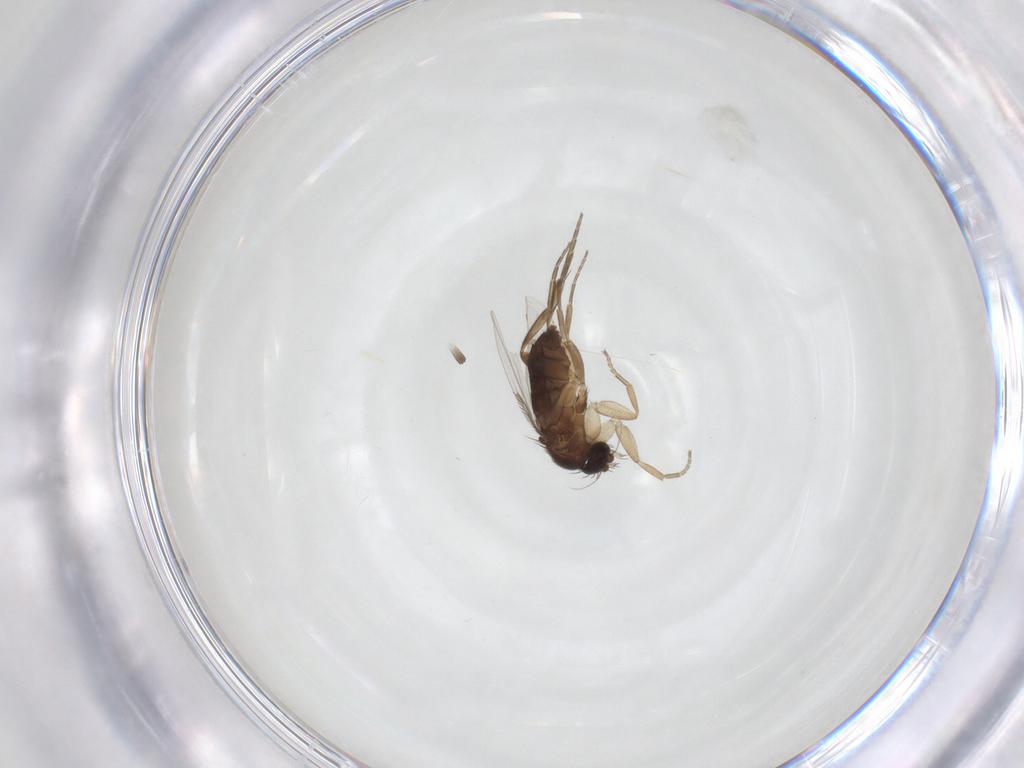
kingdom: Animalia
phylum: Arthropoda
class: Insecta
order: Diptera
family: Phoridae
